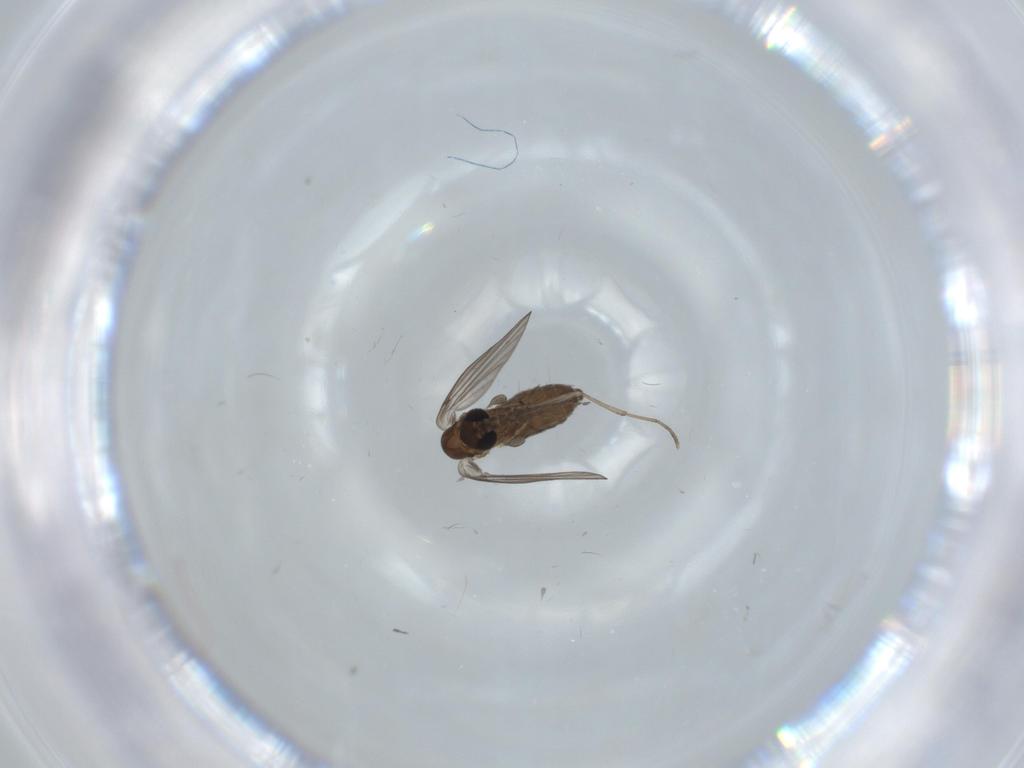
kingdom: Animalia
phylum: Arthropoda
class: Insecta
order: Diptera
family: Psychodidae
